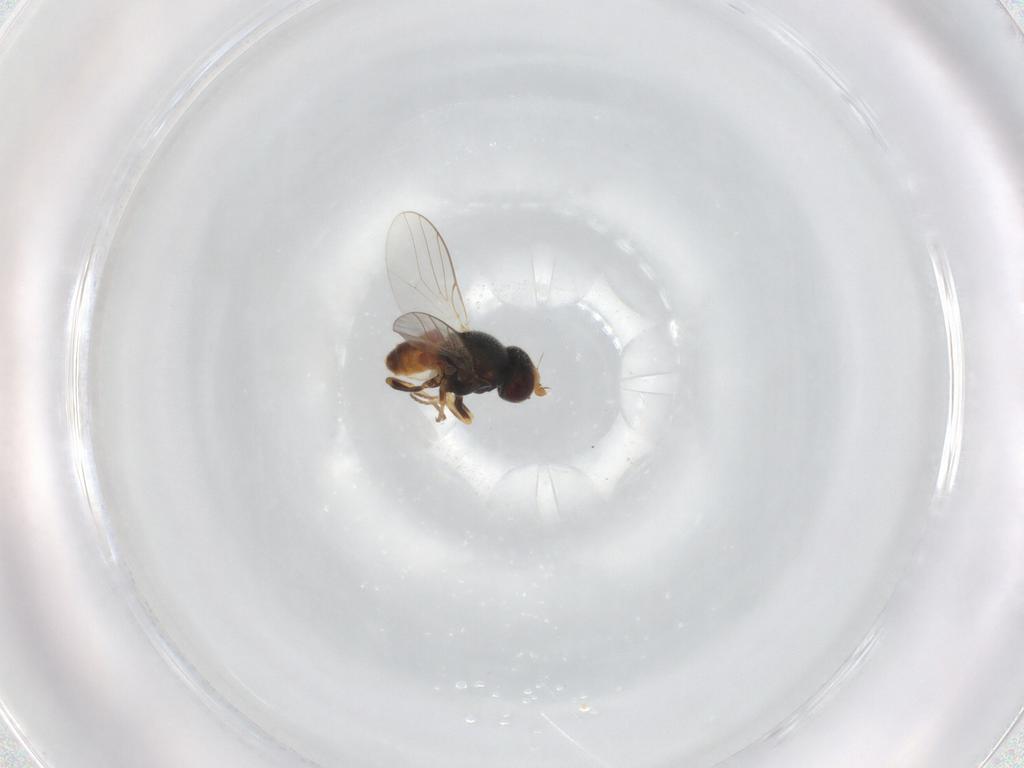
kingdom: Animalia
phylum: Arthropoda
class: Insecta
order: Diptera
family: Chloropidae
